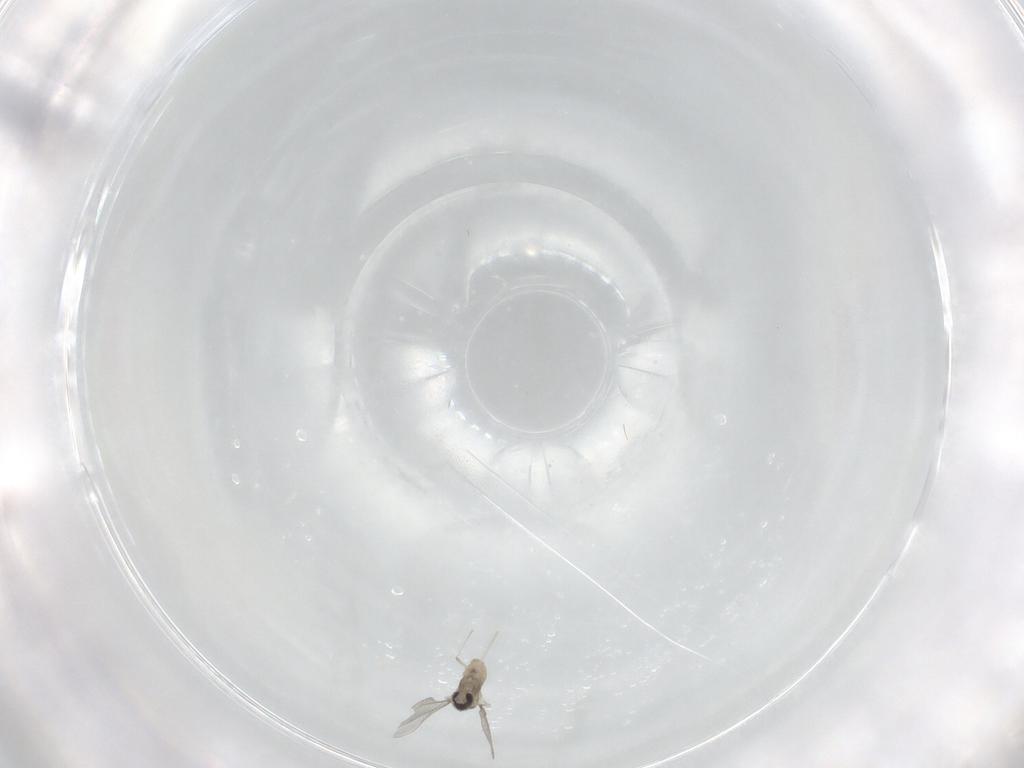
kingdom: Animalia
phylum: Arthropoda
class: Insecta
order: Diptera
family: Cecidomyiidae
